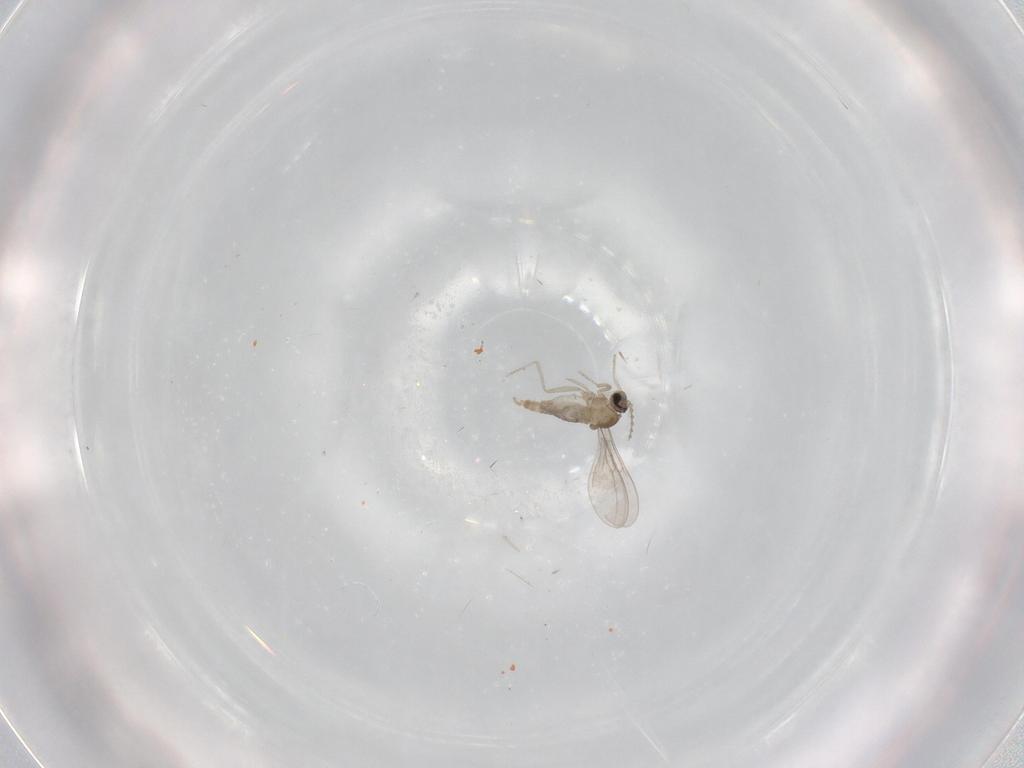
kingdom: Animalia
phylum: Arthropoda
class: Insecta
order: Diptera
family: Cecidomyiidae
